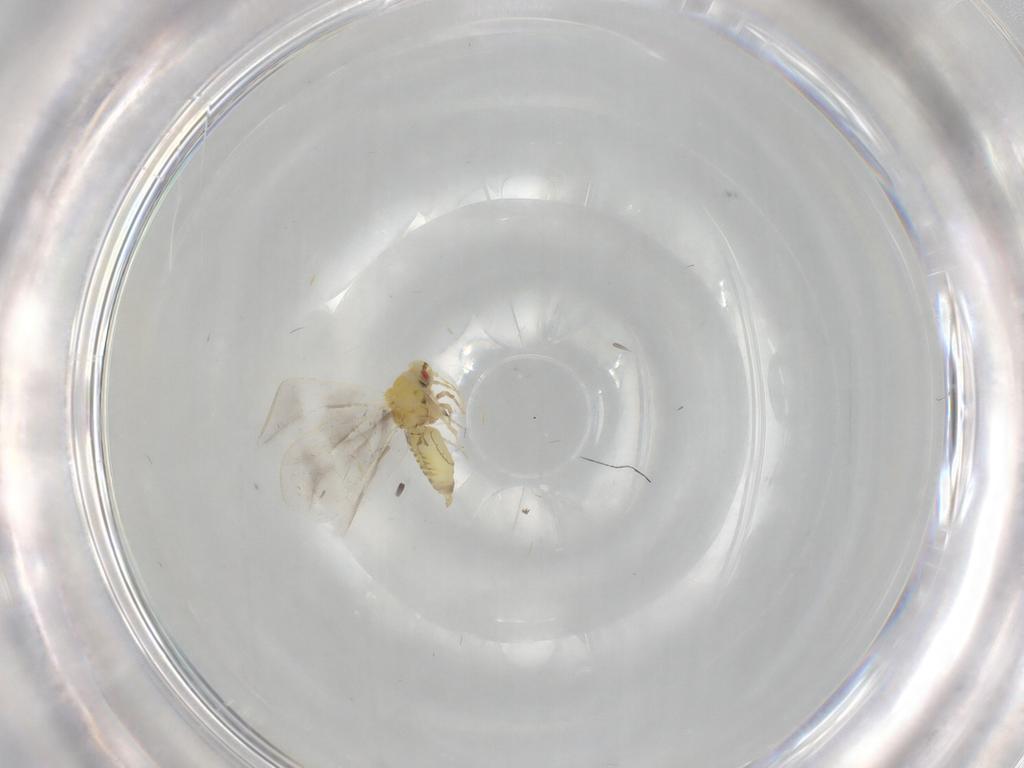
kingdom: Animalia
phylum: Arthropoda
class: Insecta
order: Hemiptera
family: Aleyrodidae
